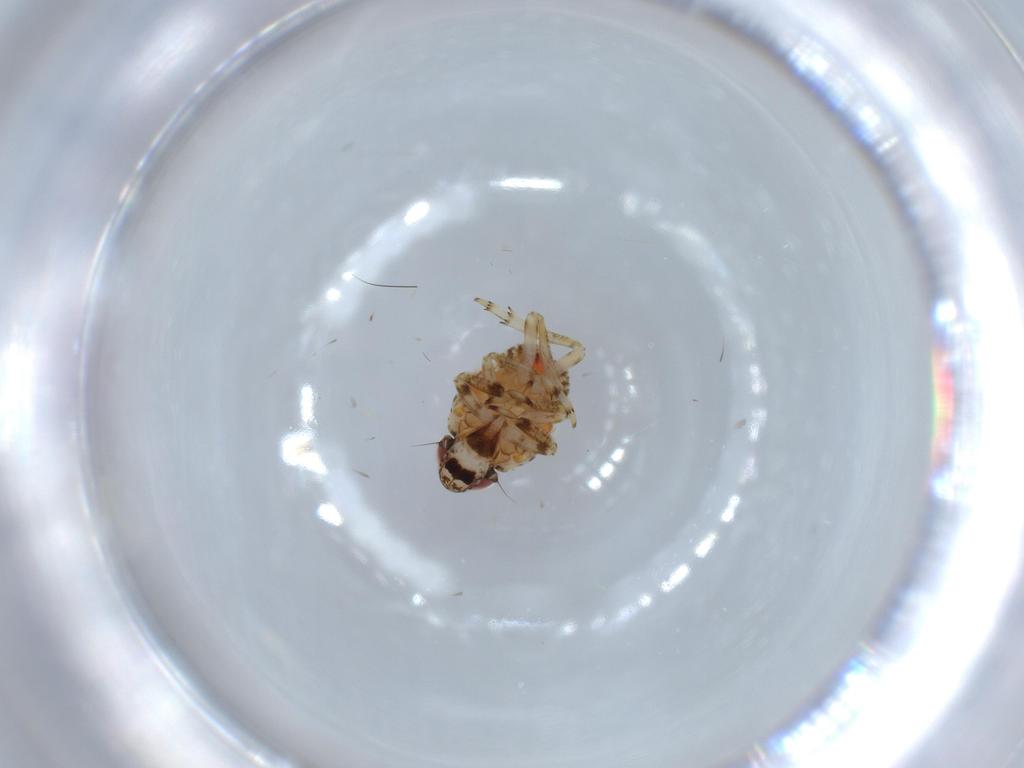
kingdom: Animalia
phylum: Arthropoda
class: Insecta
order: Hemiptera
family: Issidae
